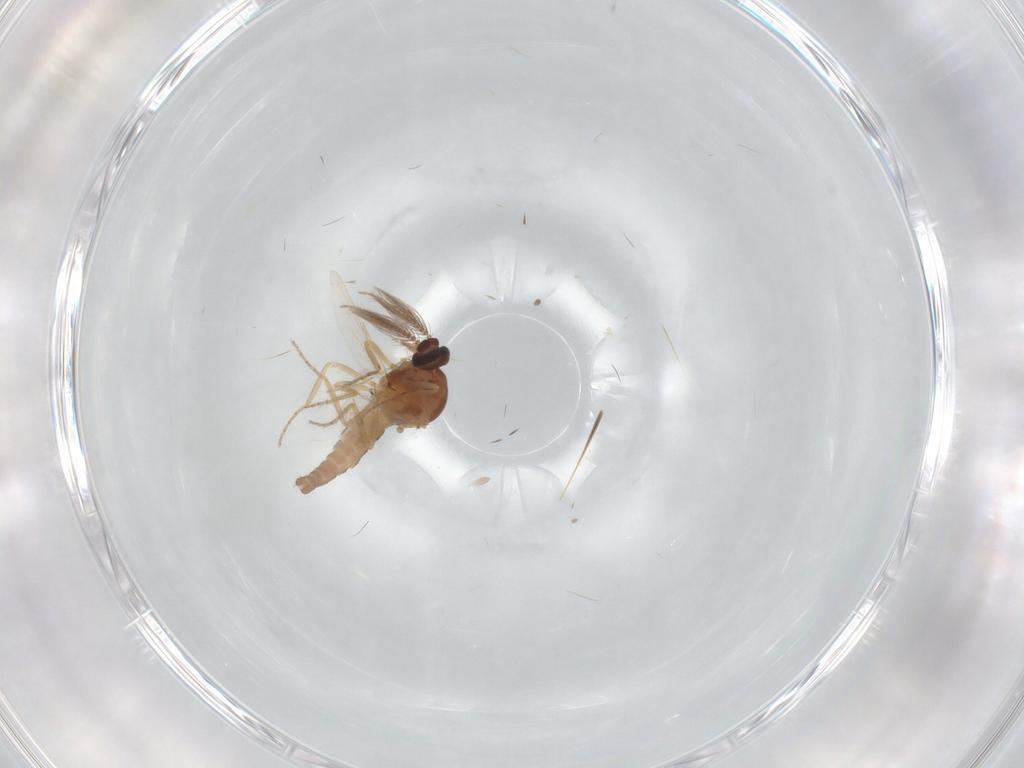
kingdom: Animalia
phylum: Arthropoda
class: Insecta
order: Diptera
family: Ceratopogonidae
